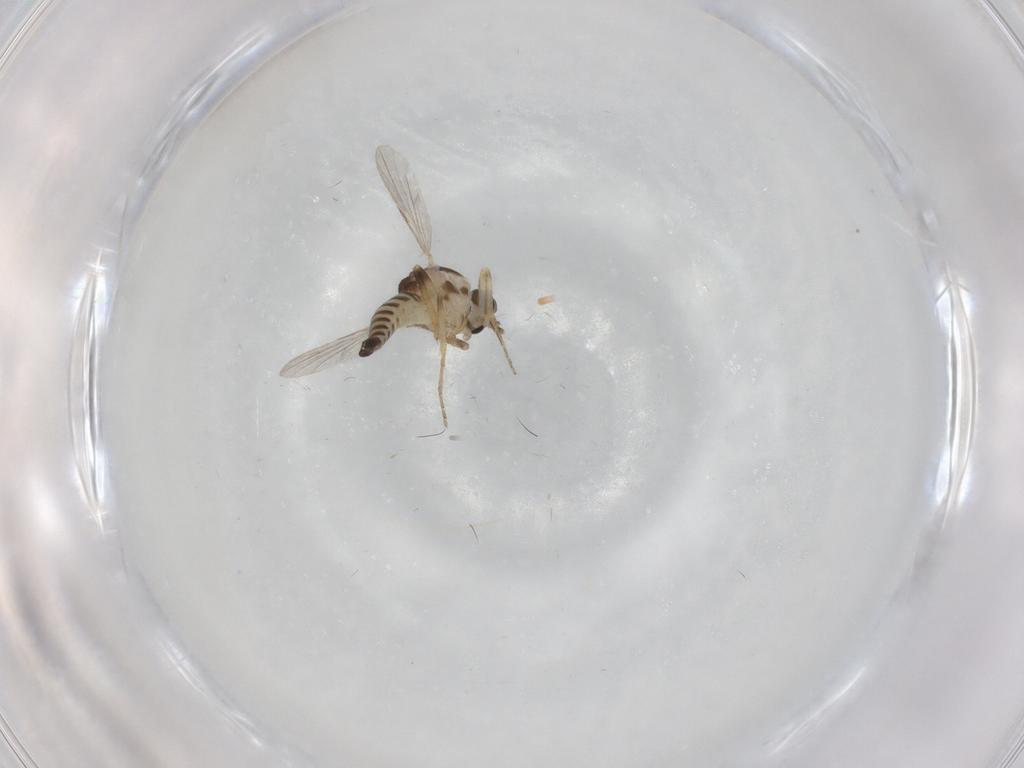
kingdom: Animalia
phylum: Arthropoda
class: Insecta
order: Diptera
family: Ceratopogonidae
